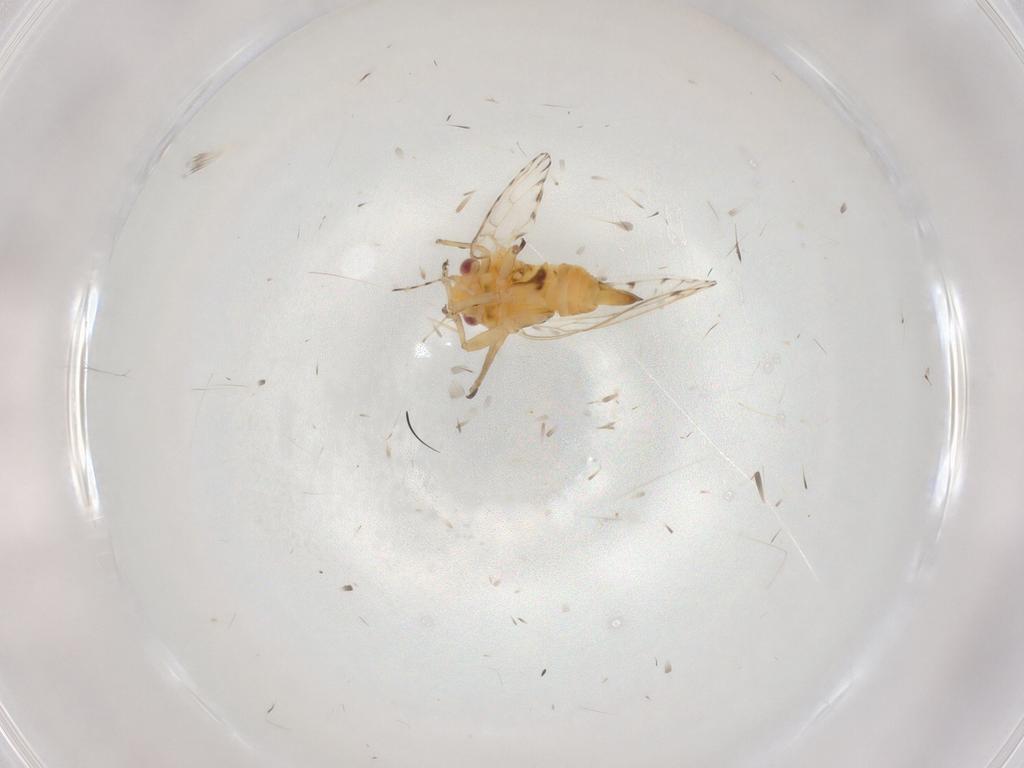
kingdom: Animalia
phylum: Arthropoda
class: Insecta
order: Hemiptera
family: Psyllidae
